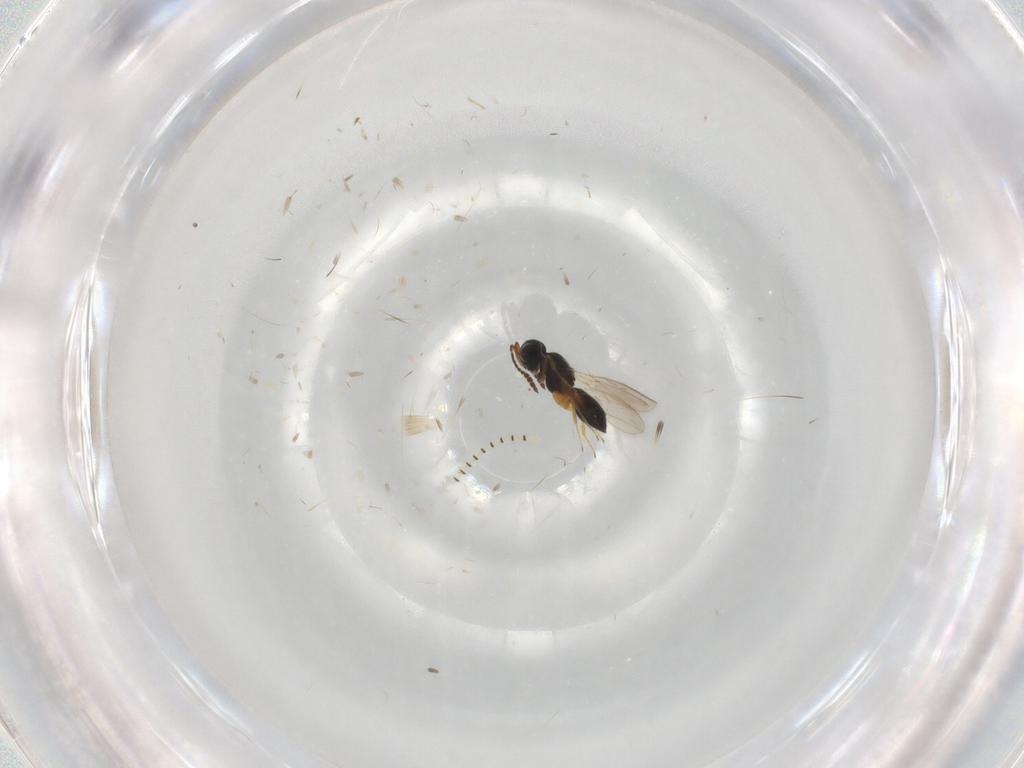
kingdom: Animalia
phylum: Arthropoda
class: Insecta
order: Hymenoptera
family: Scelionidae
